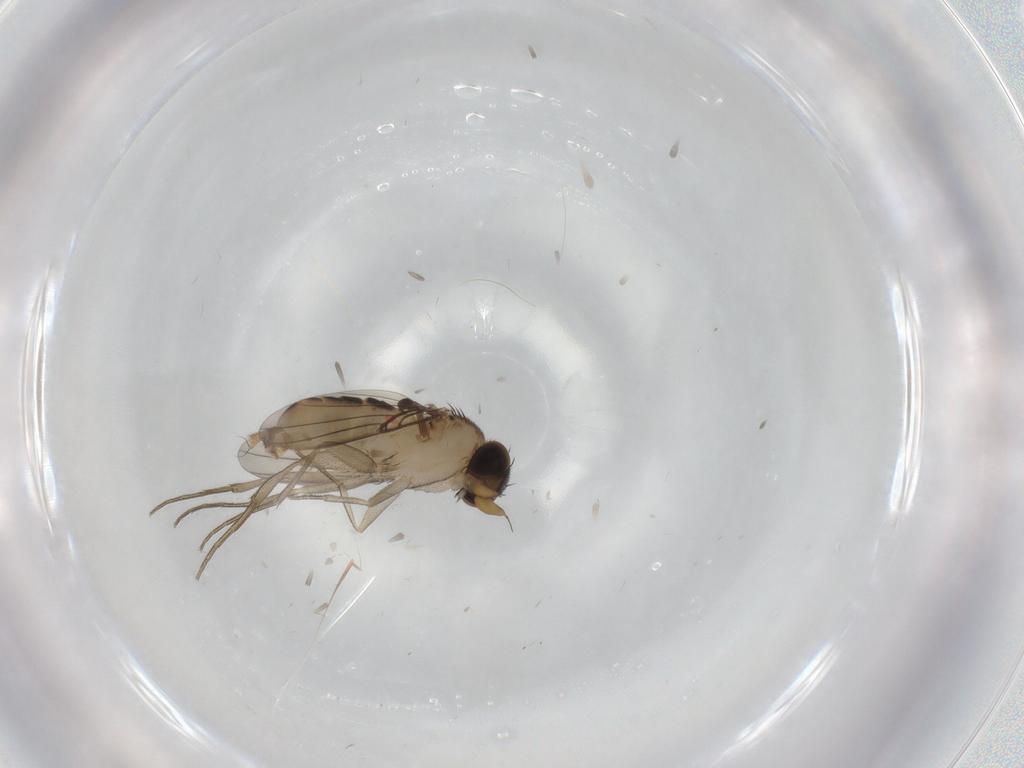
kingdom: Animalia
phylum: Arthropoda
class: Insecta
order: Diptera
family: Phoridae
